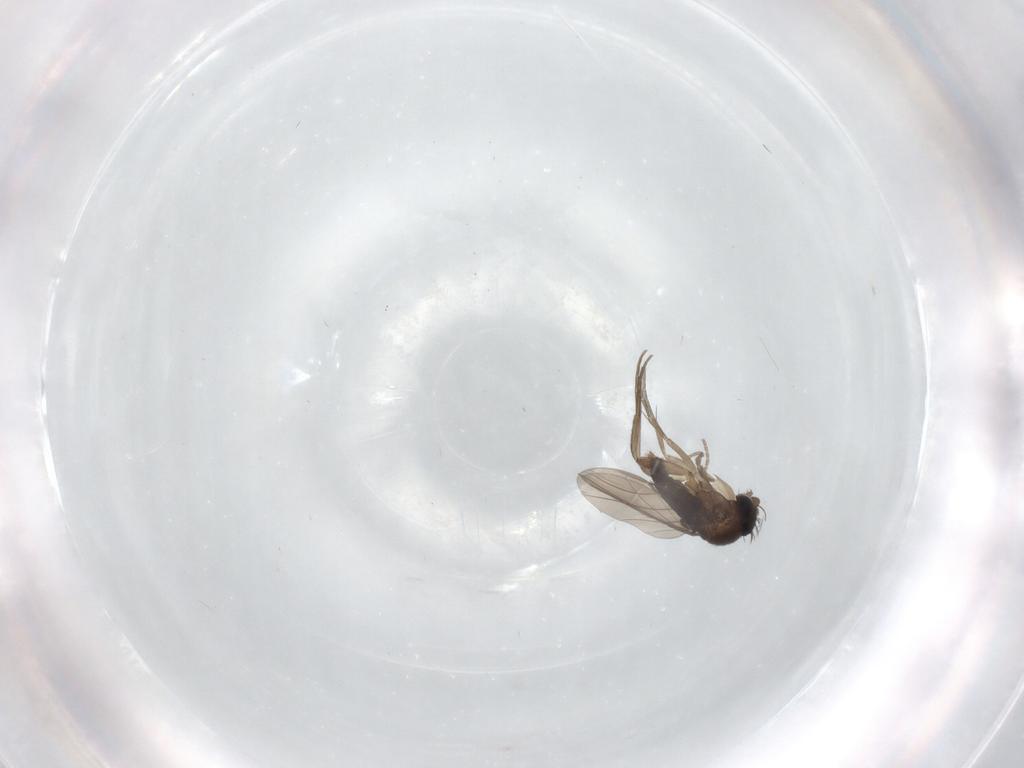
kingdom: Animalia
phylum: Arthropoda
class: Insecta
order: Diptera
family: Phoridae
